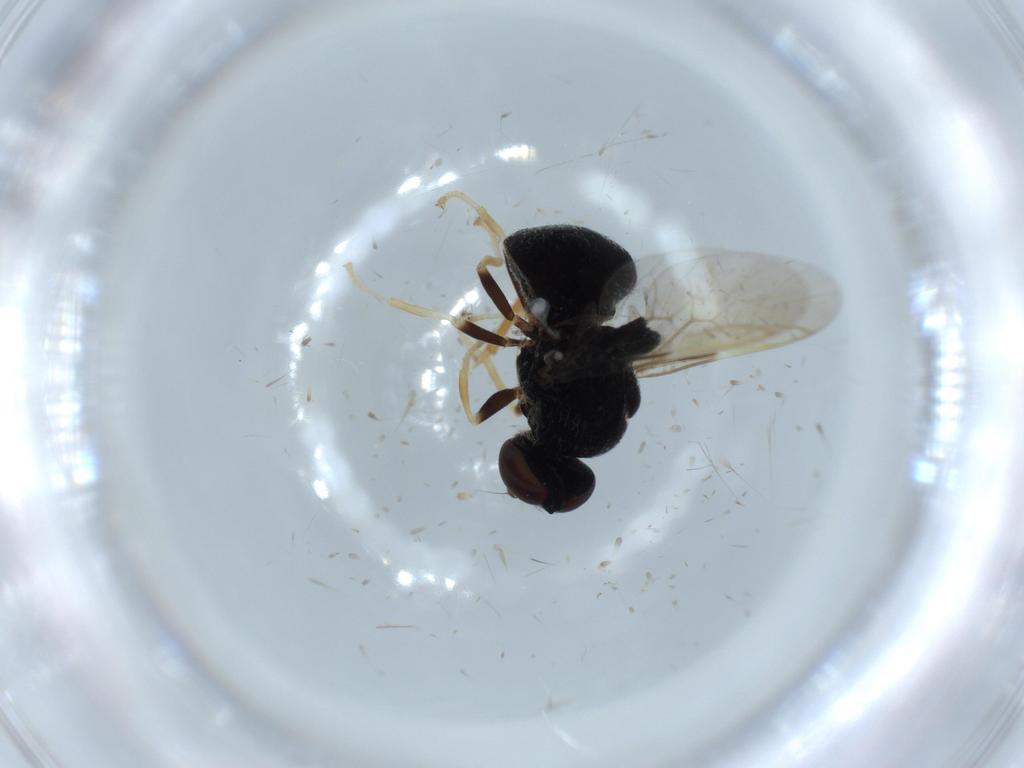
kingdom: Animalia
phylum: Arthropoda
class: Insecta
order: Diptera
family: Stratiomyidae
